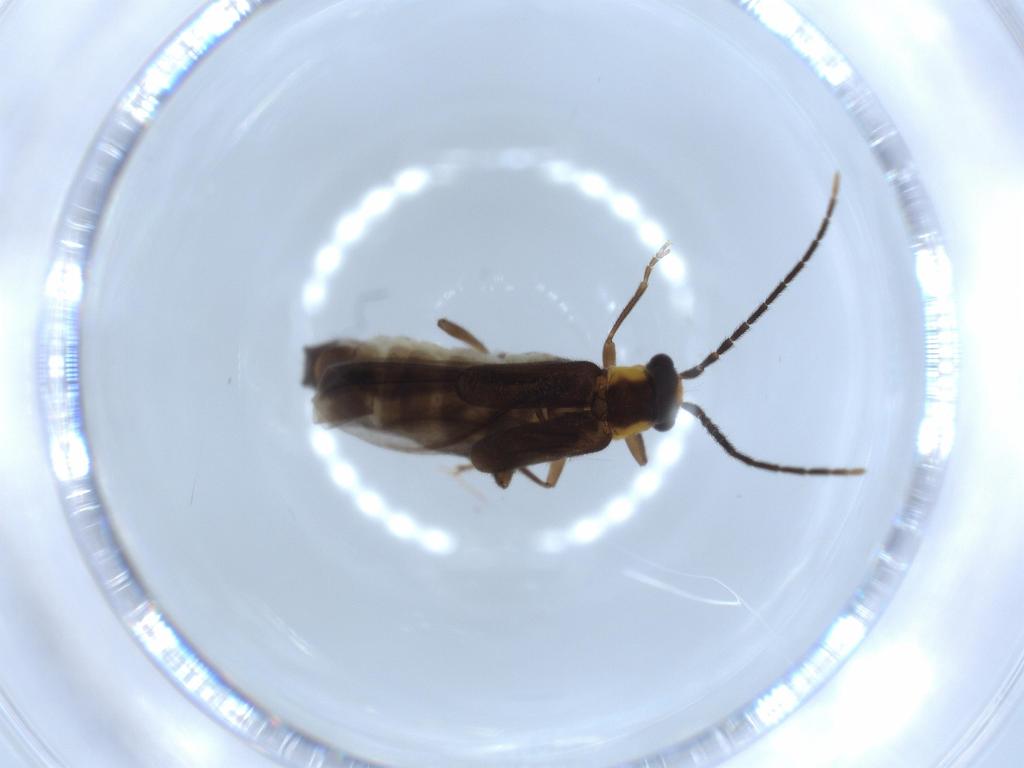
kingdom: Animalia
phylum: Arthropoda
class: Insecta
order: Coleoptera
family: Cantharidae
